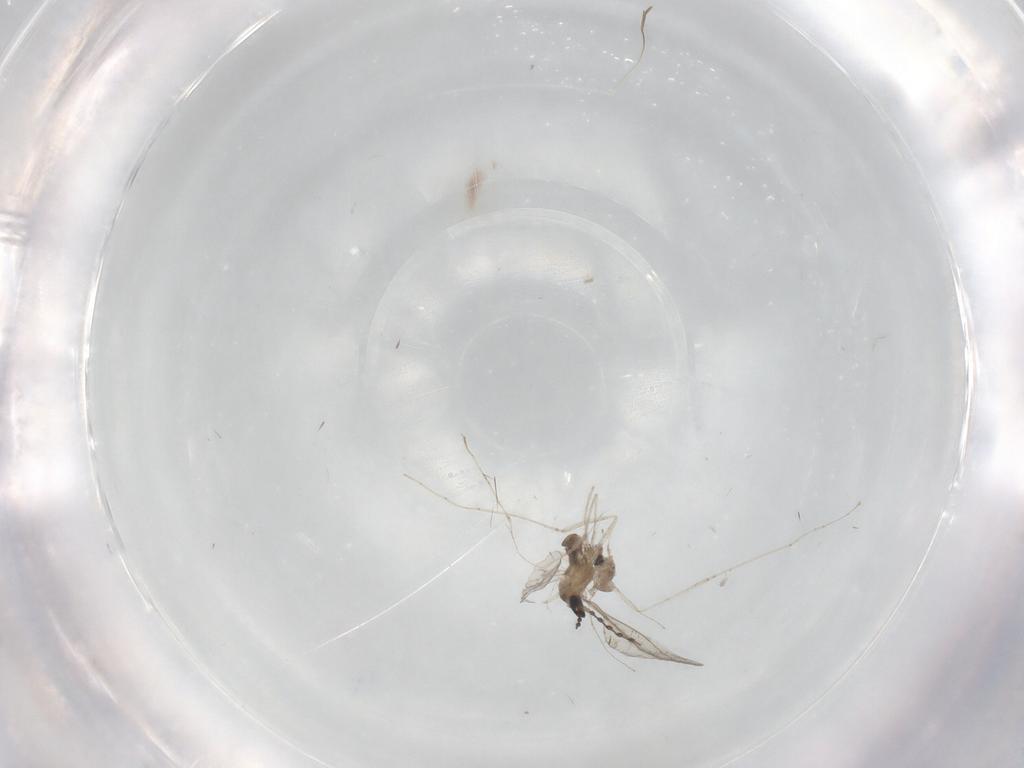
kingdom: Animalia
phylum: Arthropoda
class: Insecta
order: Diptera
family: Cecidomyiidae
